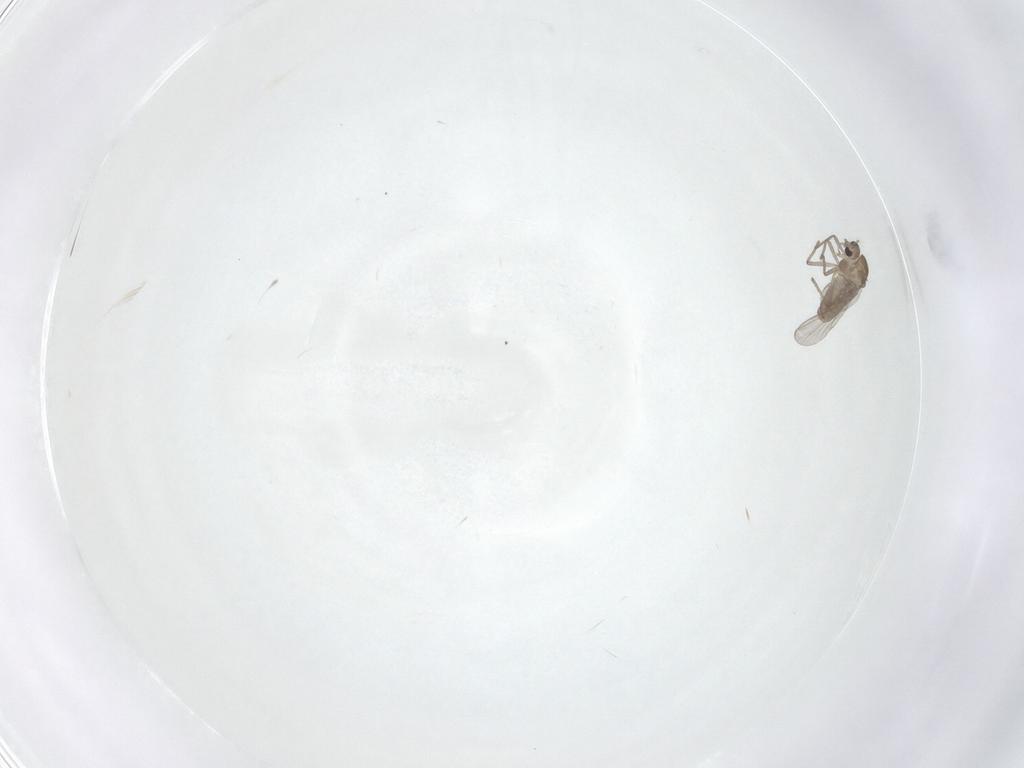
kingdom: Animalia
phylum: Arthropoda
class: Insecta
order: Diptera
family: Chironomidae
